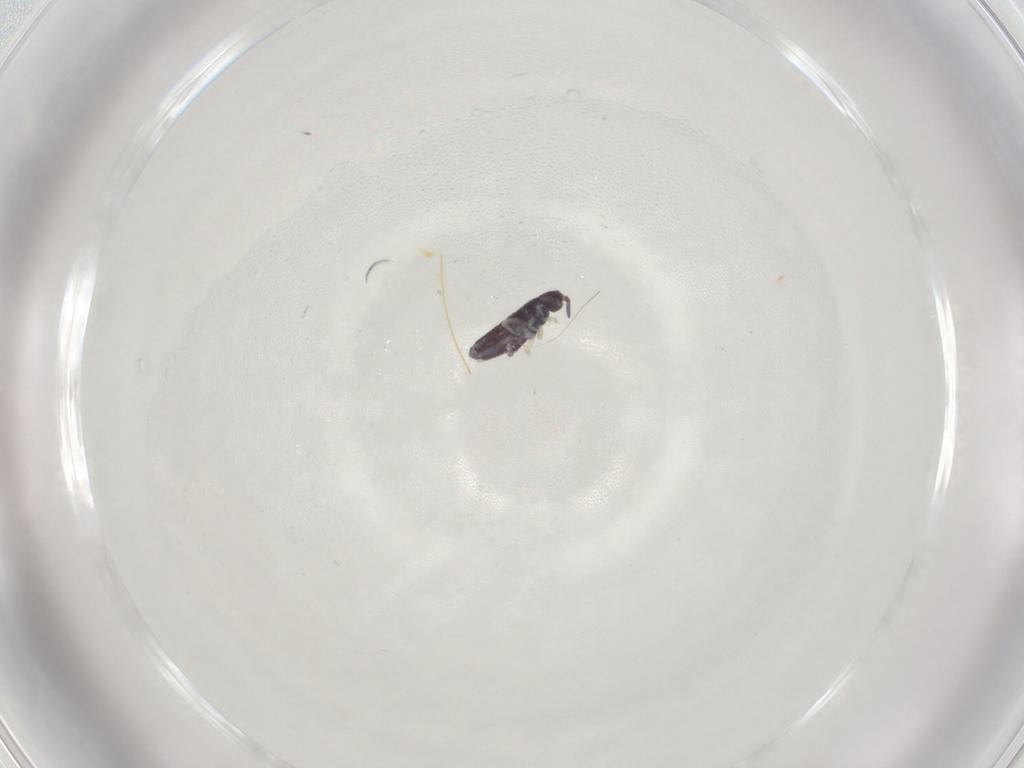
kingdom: Animalia
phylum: Arthropoda
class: Collembola
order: Entomobryomorpha
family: Entomobryidae
